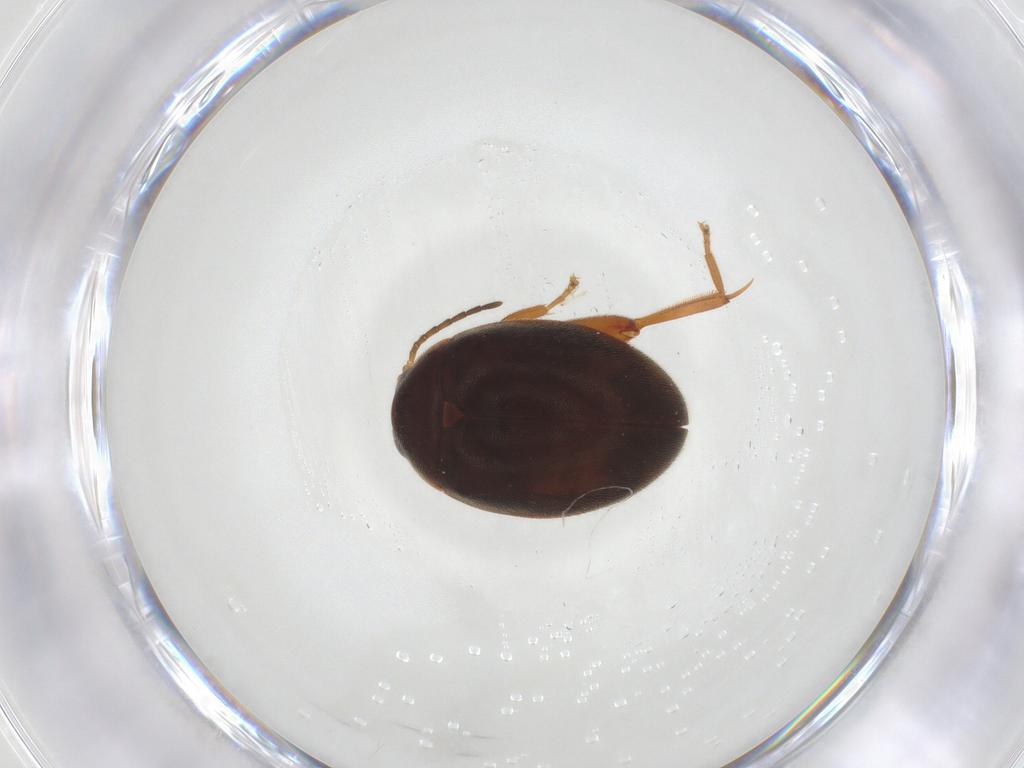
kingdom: Animalia
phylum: Arthropoda
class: Insecta
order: Coleoptera
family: Scirtidae
